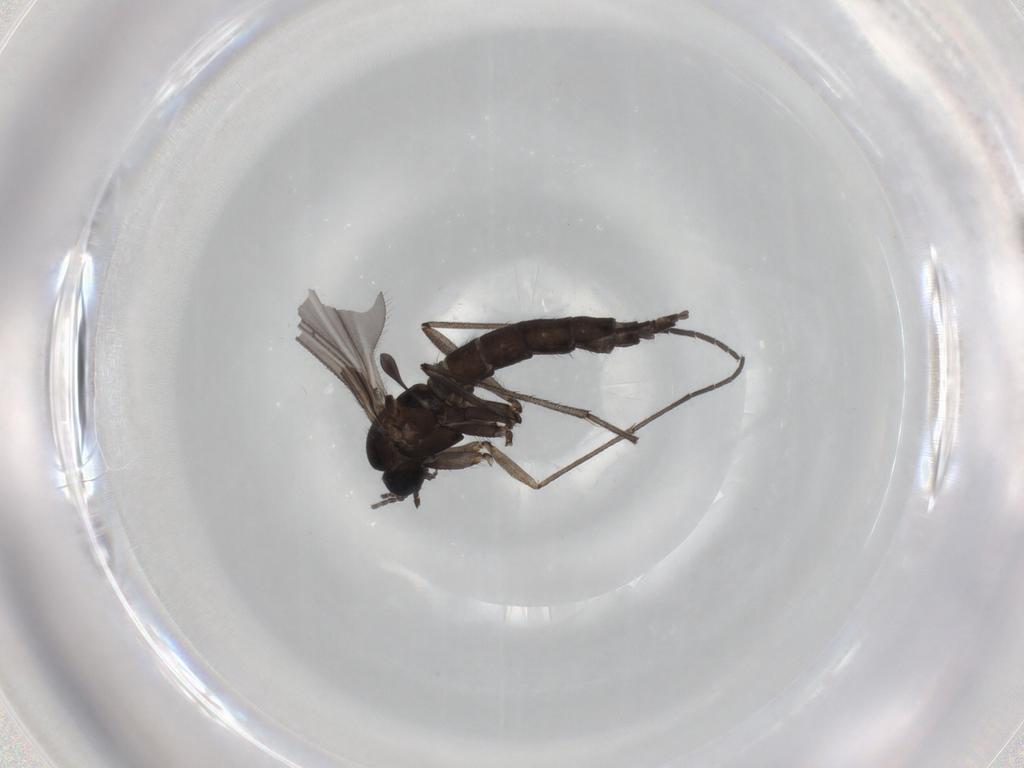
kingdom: Animalia
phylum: Arthropoda
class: Insecta
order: Diptera
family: Sciaridae
